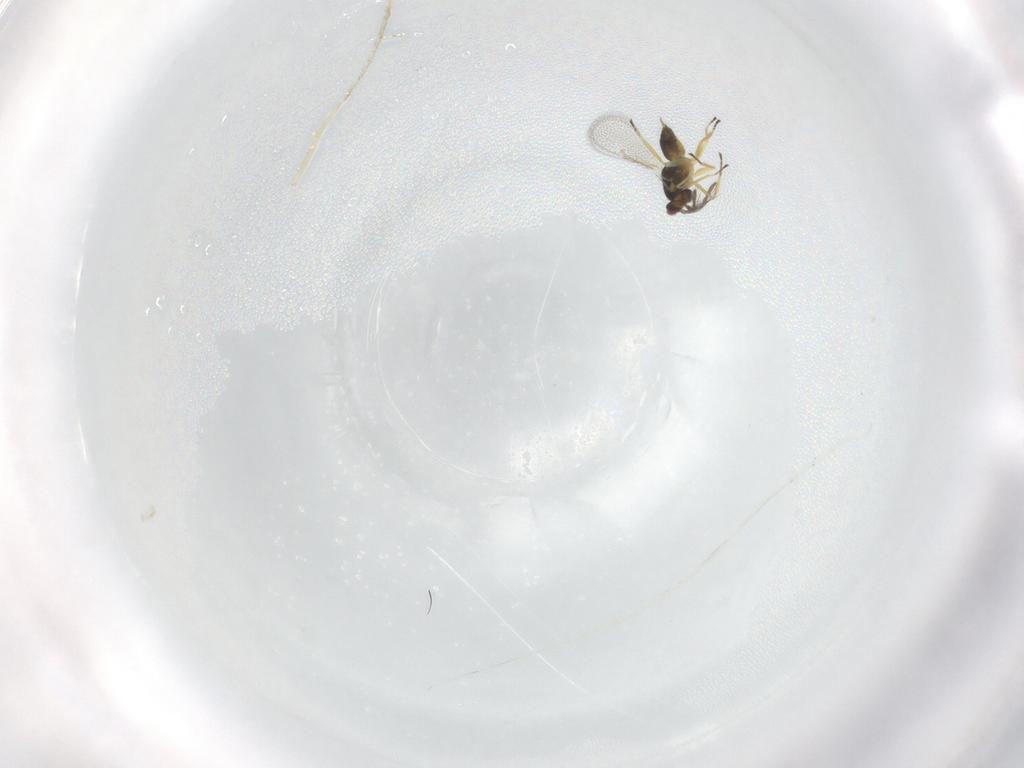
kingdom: Animalia
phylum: Arthropoda
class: Insecta
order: Hymenoptera
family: Eulophidae
